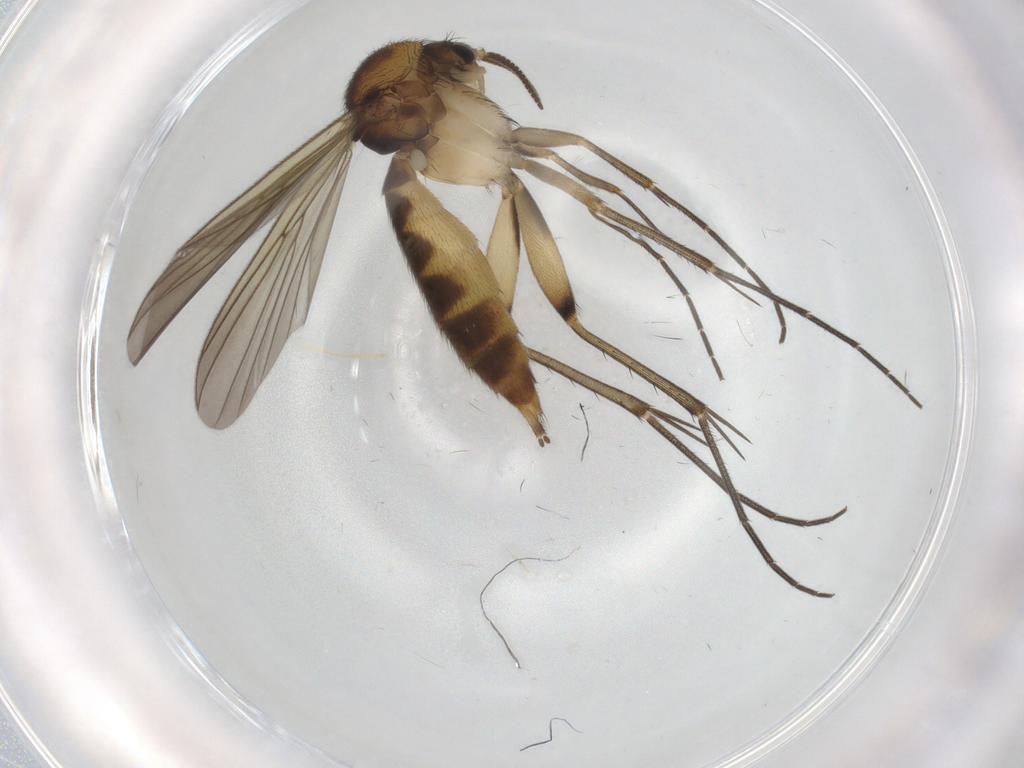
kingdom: Animalia
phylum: Arthropoda
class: Insecta
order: Diptera
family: Mycetophilidae
